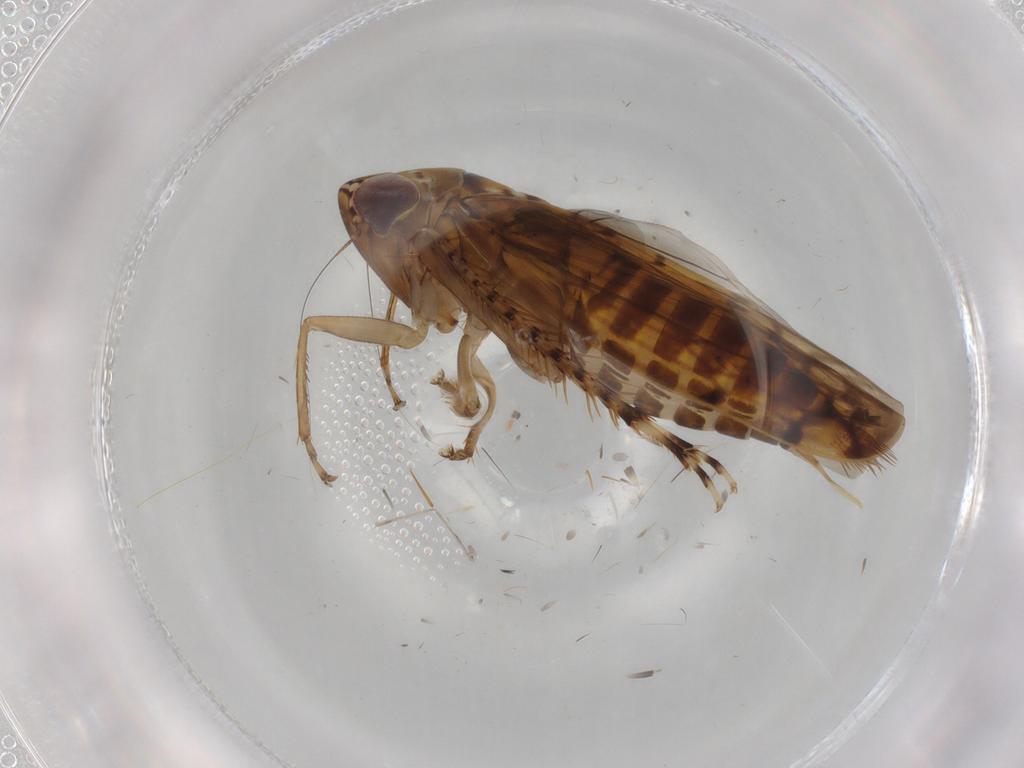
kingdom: Animalia
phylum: Arthropoda
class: Insecta
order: Hemiptera
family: Cicadellidae
